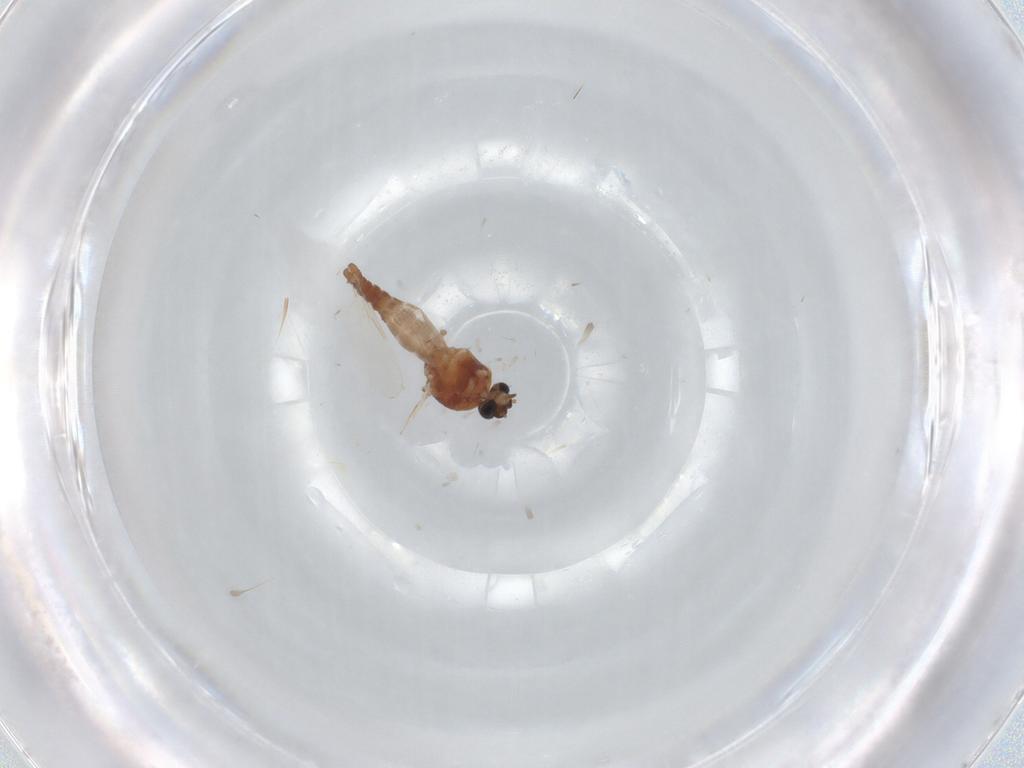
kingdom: Animalia
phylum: Arthropoda
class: Insecta
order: Diptera
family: Ceratopogonidae
